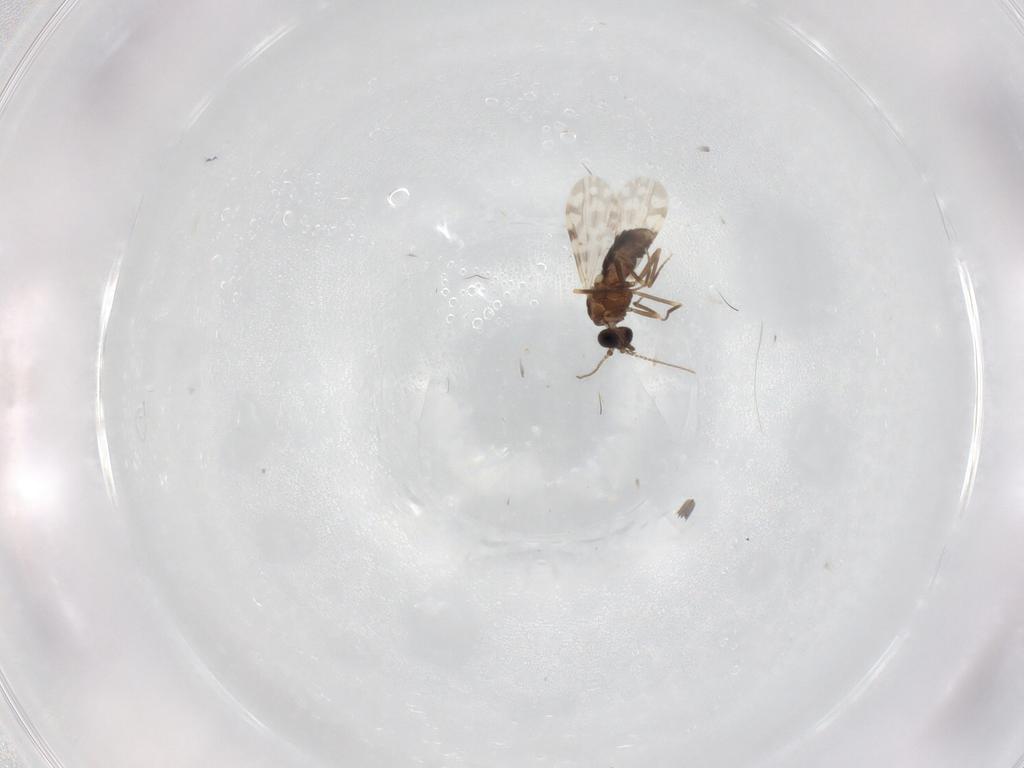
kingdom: Animalia
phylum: Arthropoda
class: Insecta
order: Diptera
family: Ceratopogonidae
